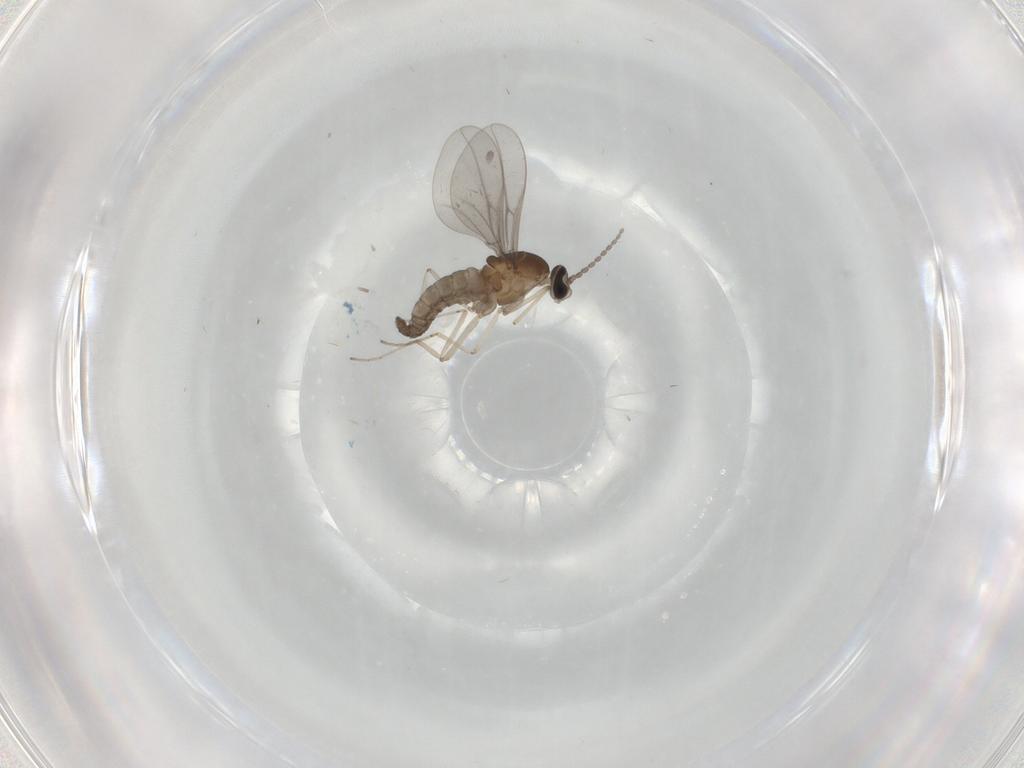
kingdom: Animalia
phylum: Arthropoda
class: Insecta
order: Diptera
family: Cecidomyiidae
